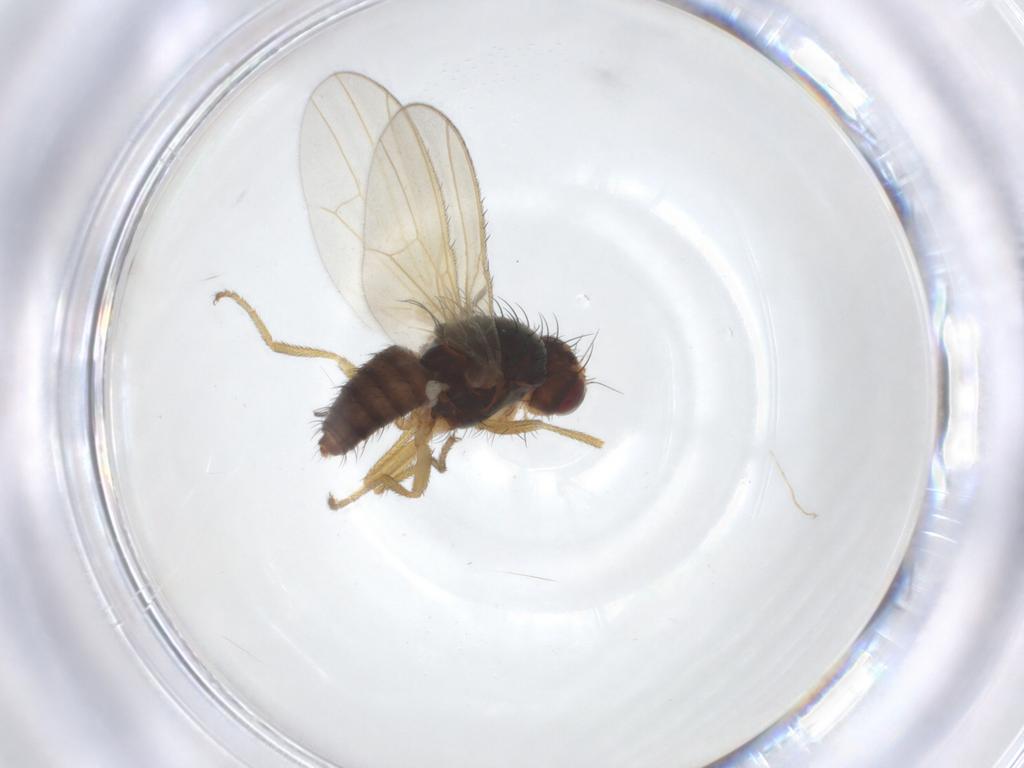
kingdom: Animalia
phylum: Arthropoda
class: Insecta
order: Diptera
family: Heleomyzidae
